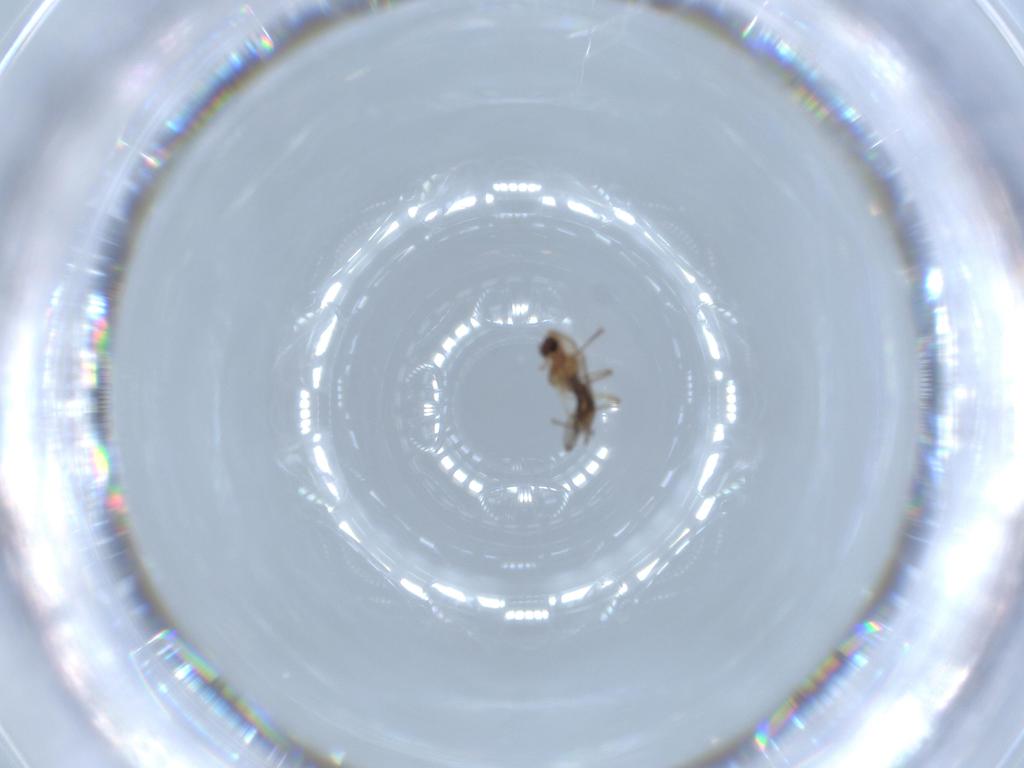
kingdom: Animalia
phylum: Arthropoda
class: Insecta
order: Diptera
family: Chironomidae
